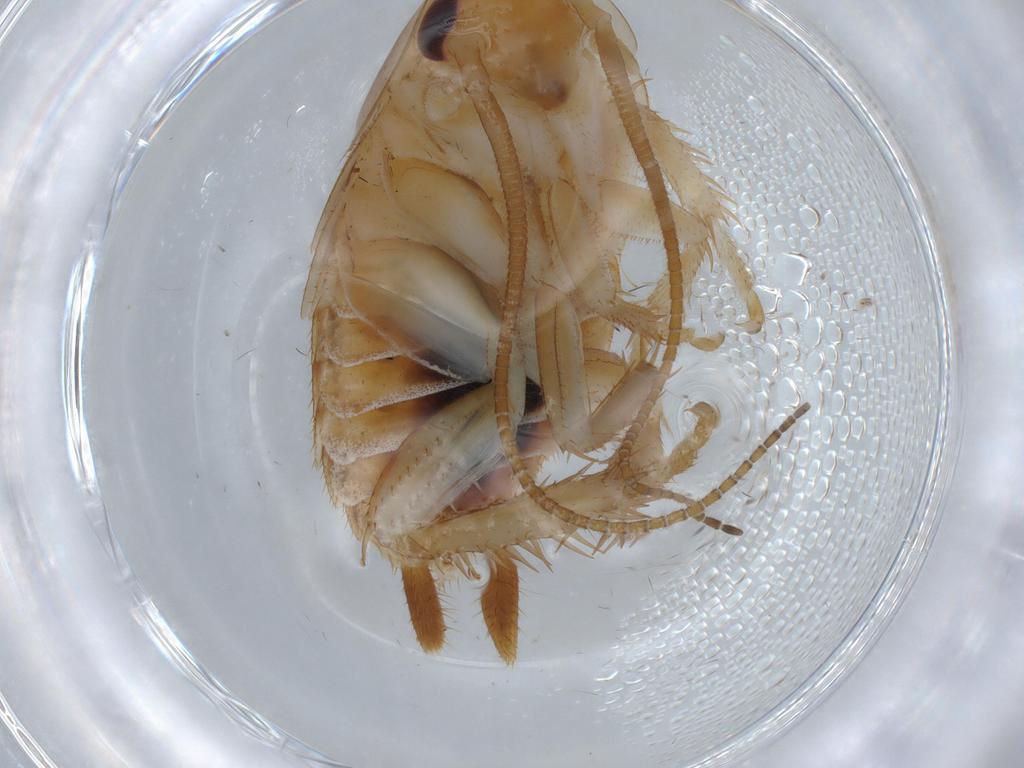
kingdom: Animalia
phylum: Arthropoda
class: Insecta
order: Blattodea
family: Ectobiidae
